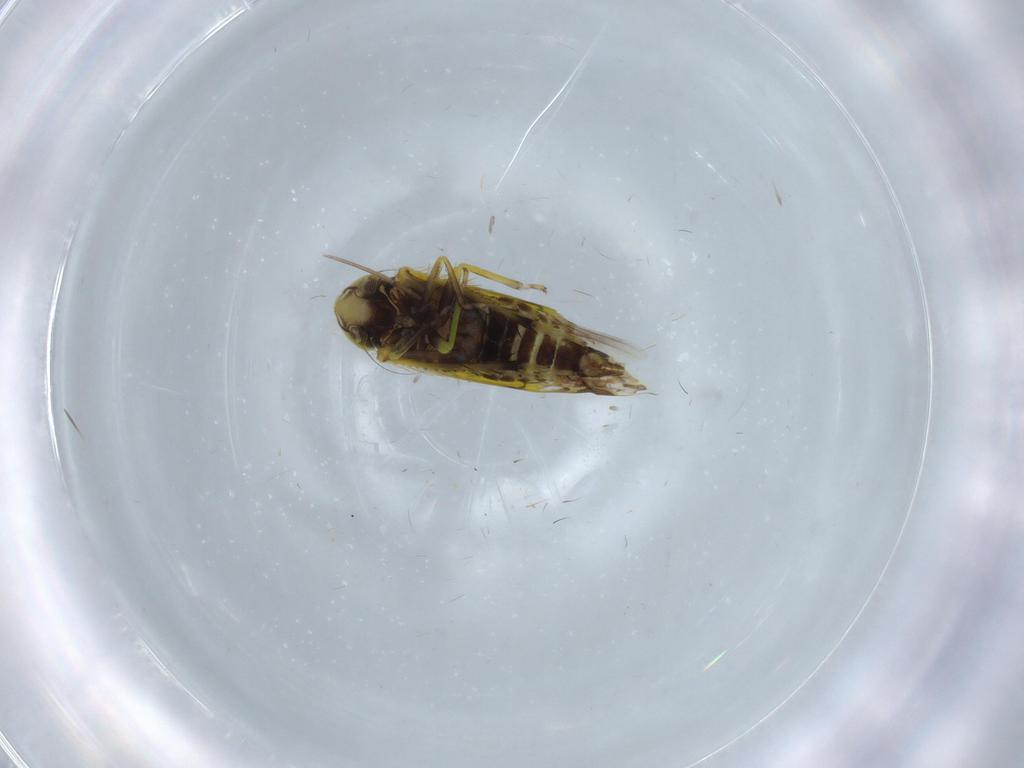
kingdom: Animalia
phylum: Arthropoda
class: Insecta
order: Hemiptera
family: Cicadellidae
